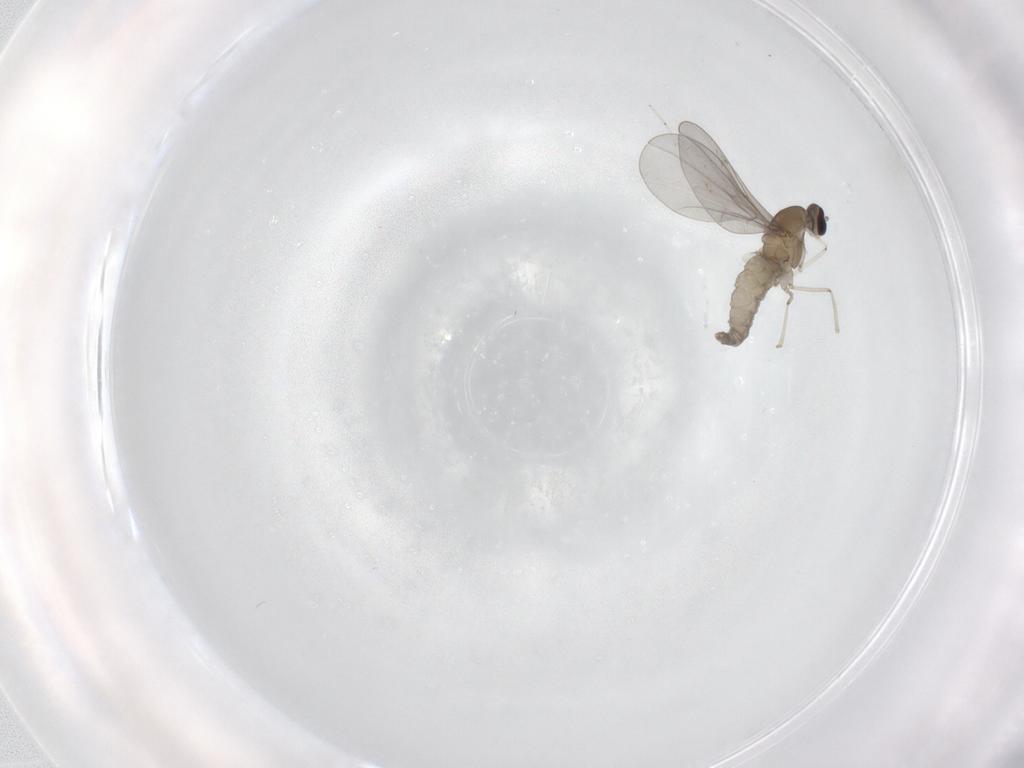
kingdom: Animalia
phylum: Arthropoda
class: Insecta
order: Diptera
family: Cecidomyiidae
